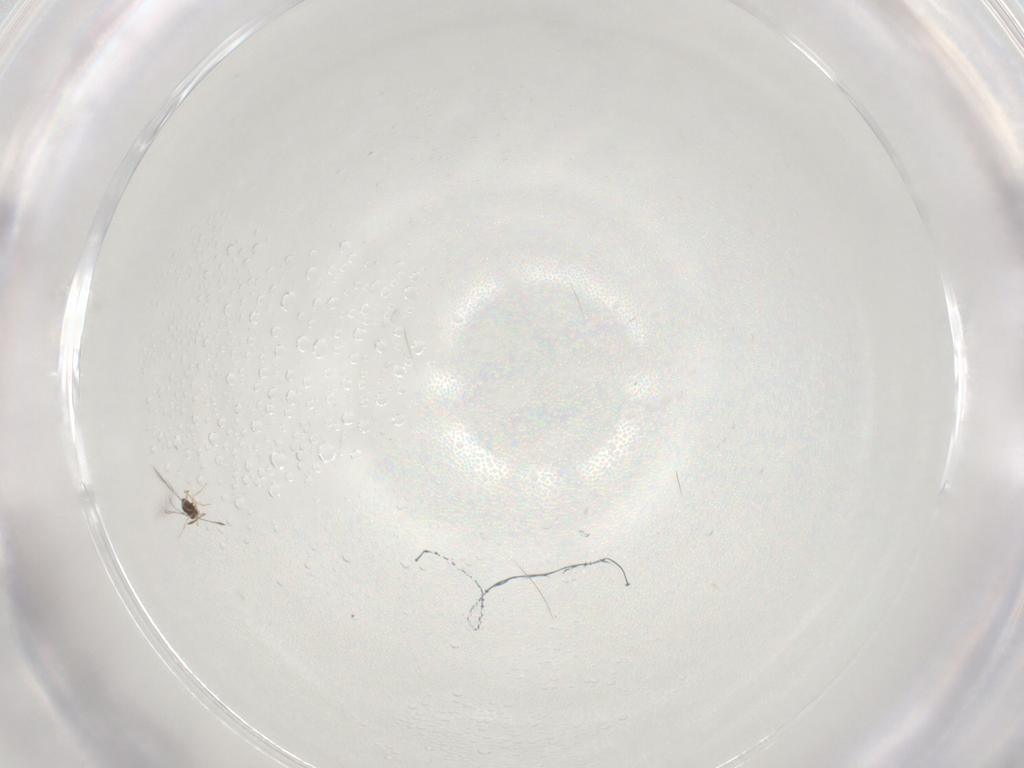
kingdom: Animalia
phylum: Arthropoda
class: Insecta
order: Hemiptera
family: Delphacidae
